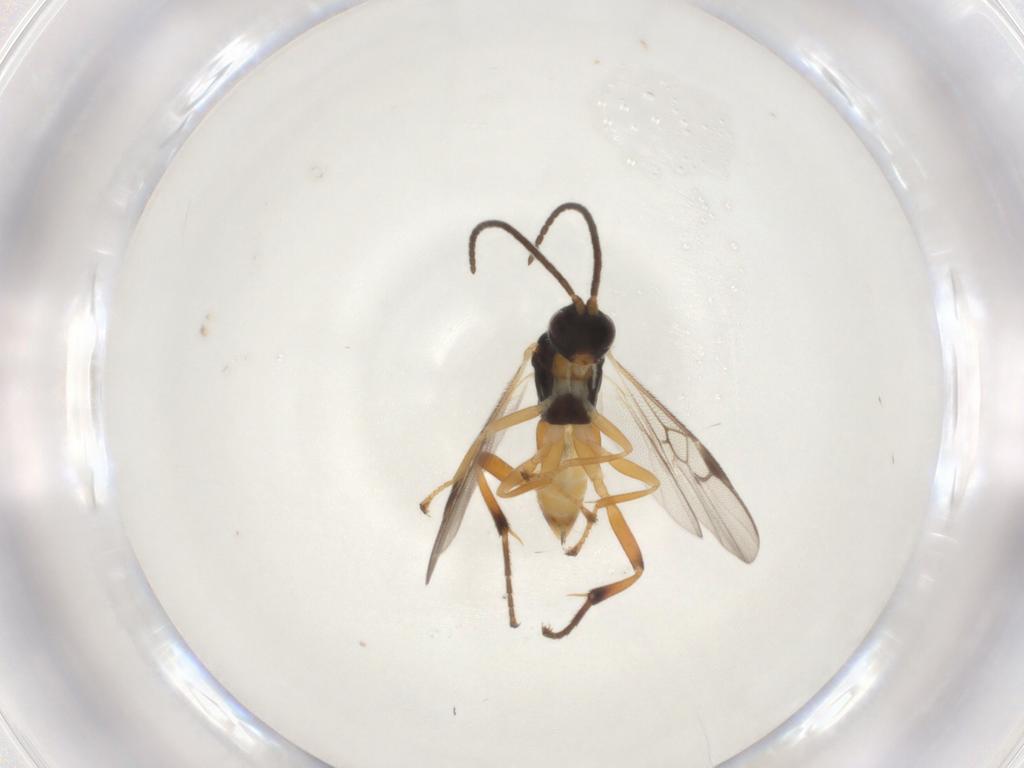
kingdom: Animalia
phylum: Arthropoda
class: Insecta
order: Hymenoptera
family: Braconidae
